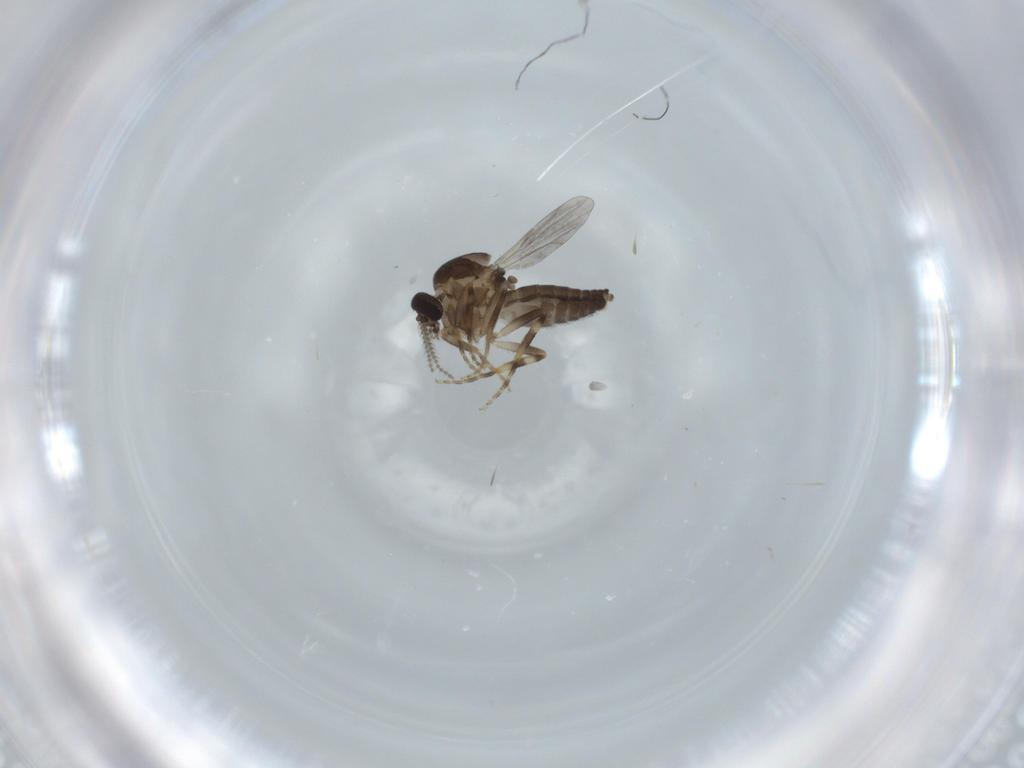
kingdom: Animalia
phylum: Arthropoda
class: Insecta
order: Diptera
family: Ceratopogonidae
